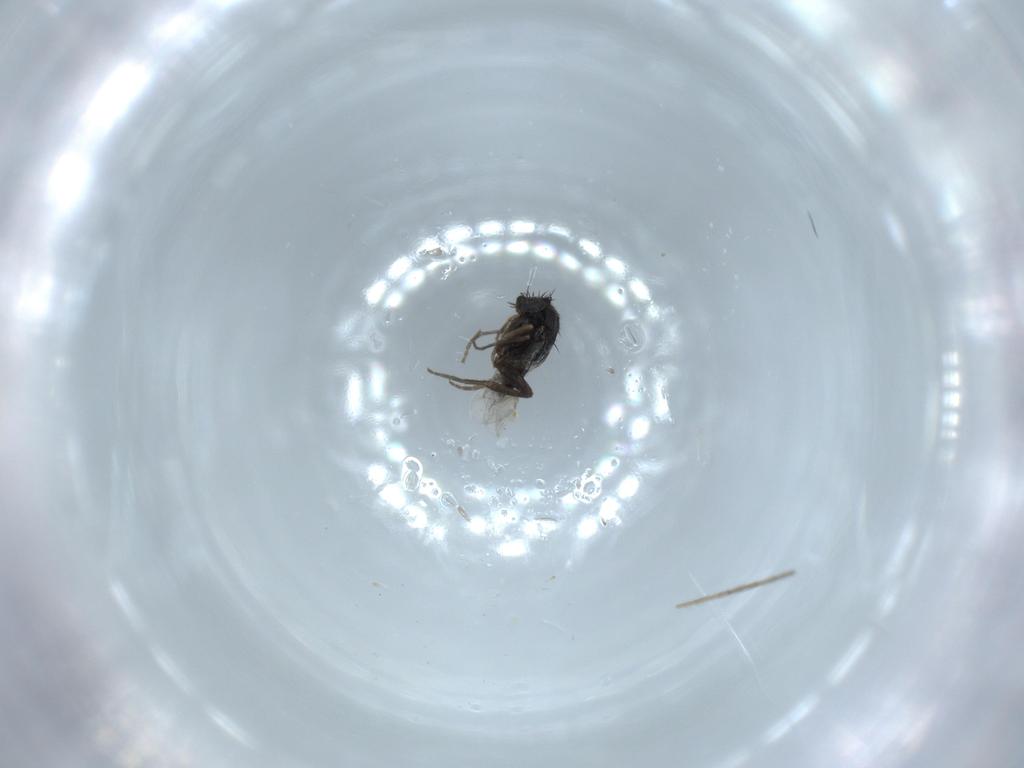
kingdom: Animalia
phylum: Arthropoda
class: Insecta
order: Diptera
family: Phoridae
